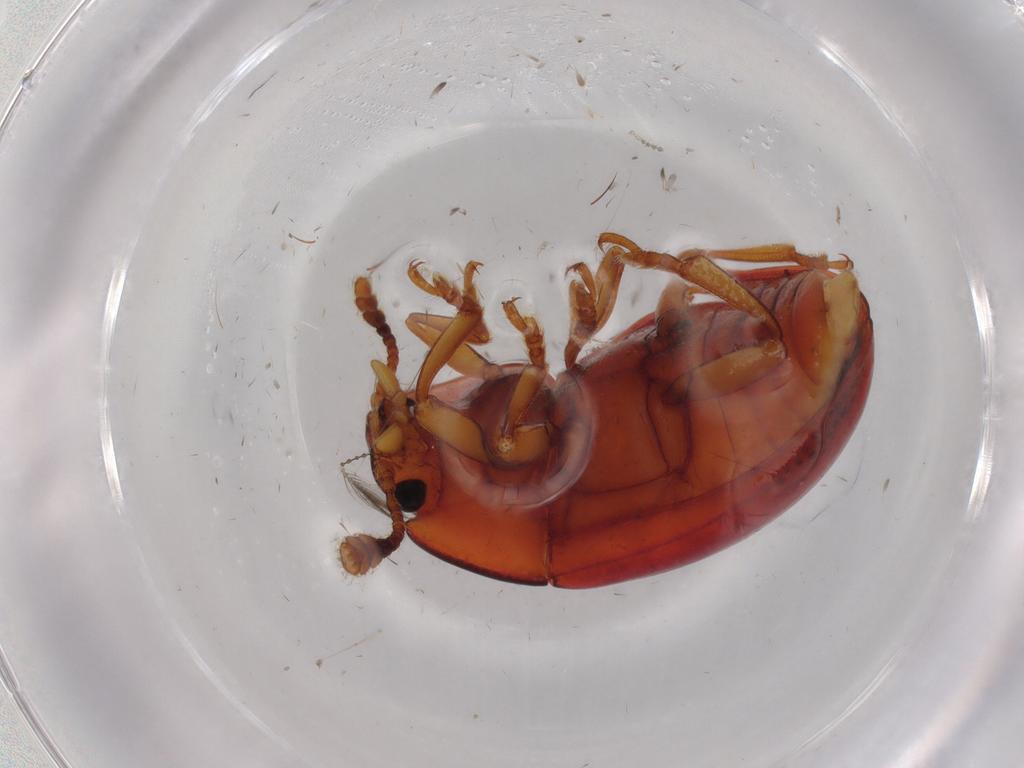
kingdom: Animalia
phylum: Arthropoda
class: Insecta
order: Coleoptera
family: Erotylidae
